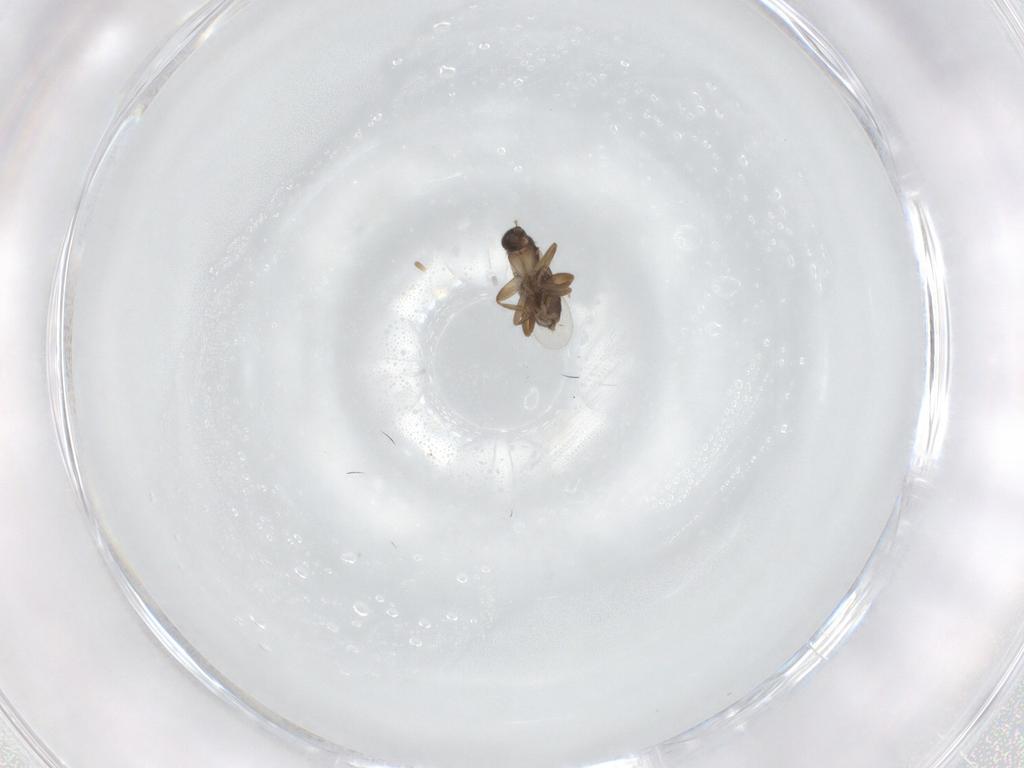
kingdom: Animalia
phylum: Arthropoda
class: Insecta
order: Diptera
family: Phoridae
